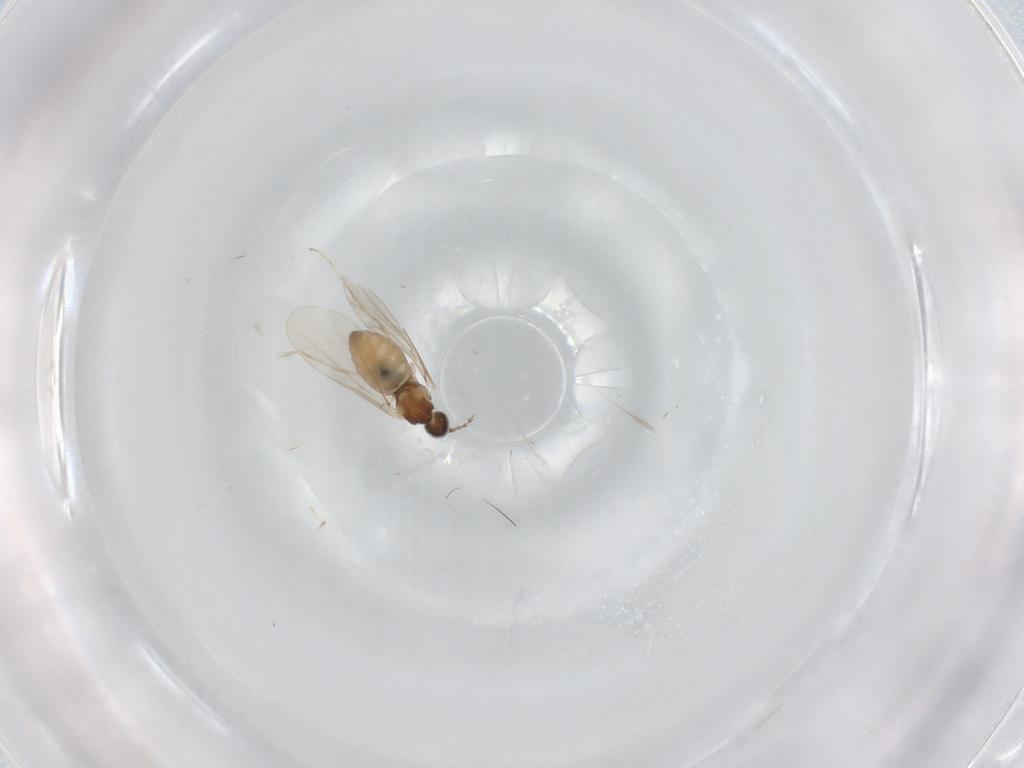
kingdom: Animalia
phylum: Arthropoda
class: Insecta
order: Diptera
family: Cecidomyiidae
